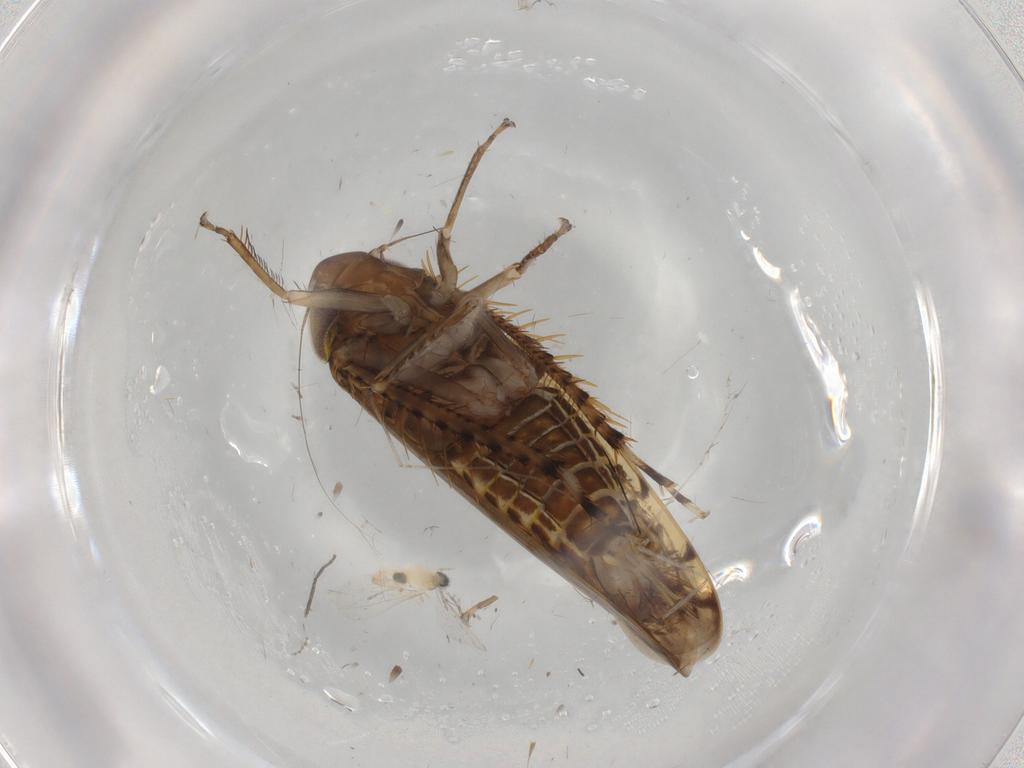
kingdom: Animalia
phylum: Arthropoda
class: Insecta
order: Hemiptera
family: Cicadellidae
